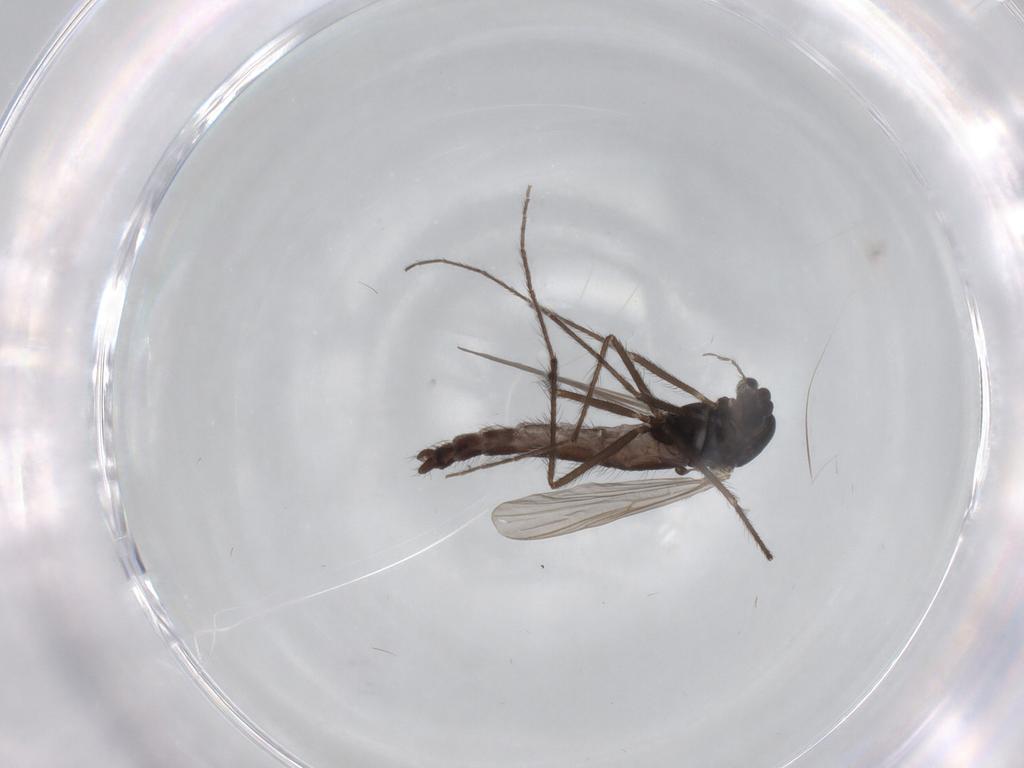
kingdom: Animalia
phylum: Arthropoda
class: Insecta
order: Diptera
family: Chironomidae
